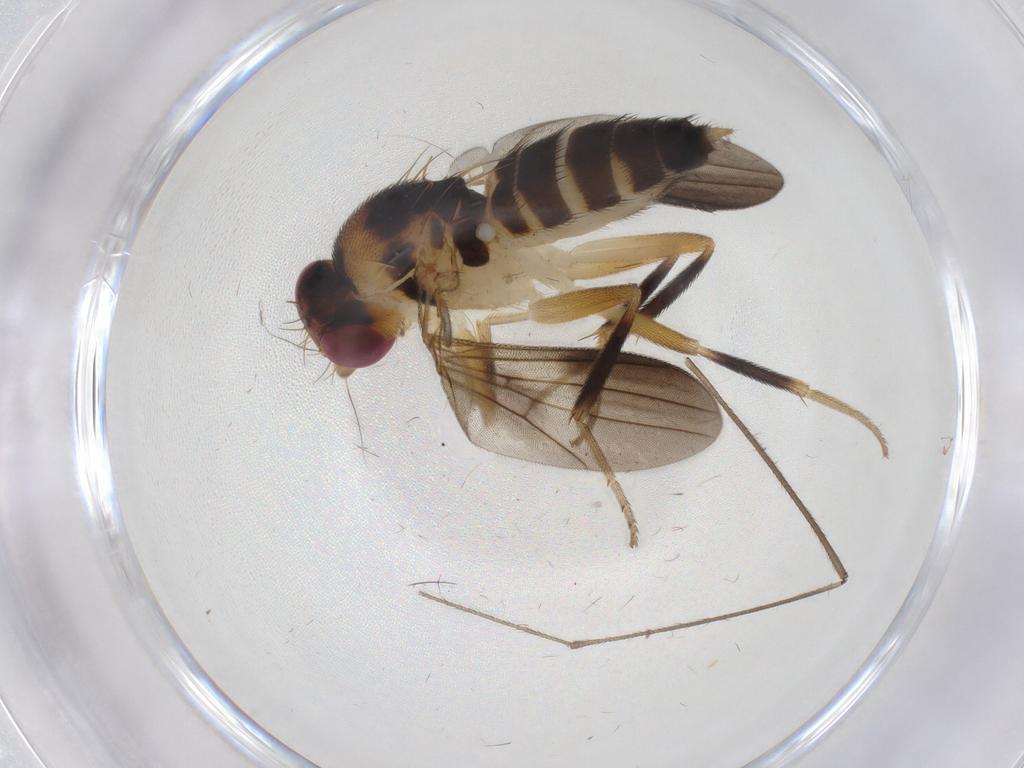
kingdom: Animalia
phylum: Arthropoda
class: Insecta
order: Diptera
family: Clusiidae
